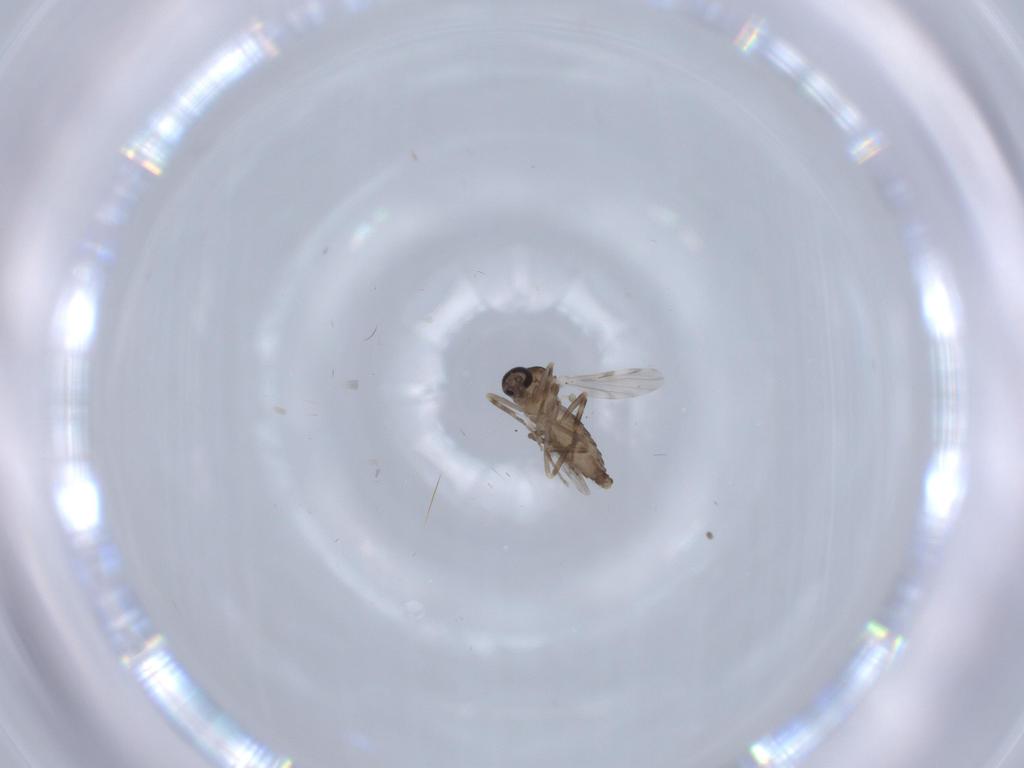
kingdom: Animalia
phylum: Arthropoda
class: Insecta
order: Diptera
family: Ceratopogonidae
